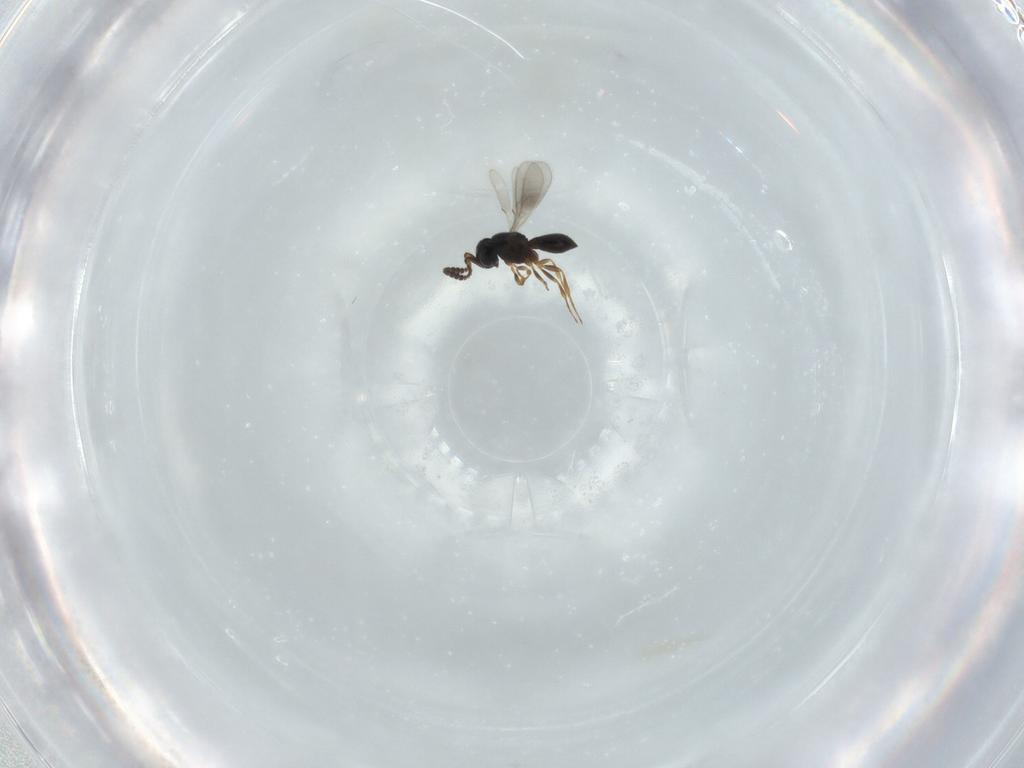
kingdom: Animalia
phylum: Arthropoda
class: Insecta
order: Hymenoptera
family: Scelionidae
